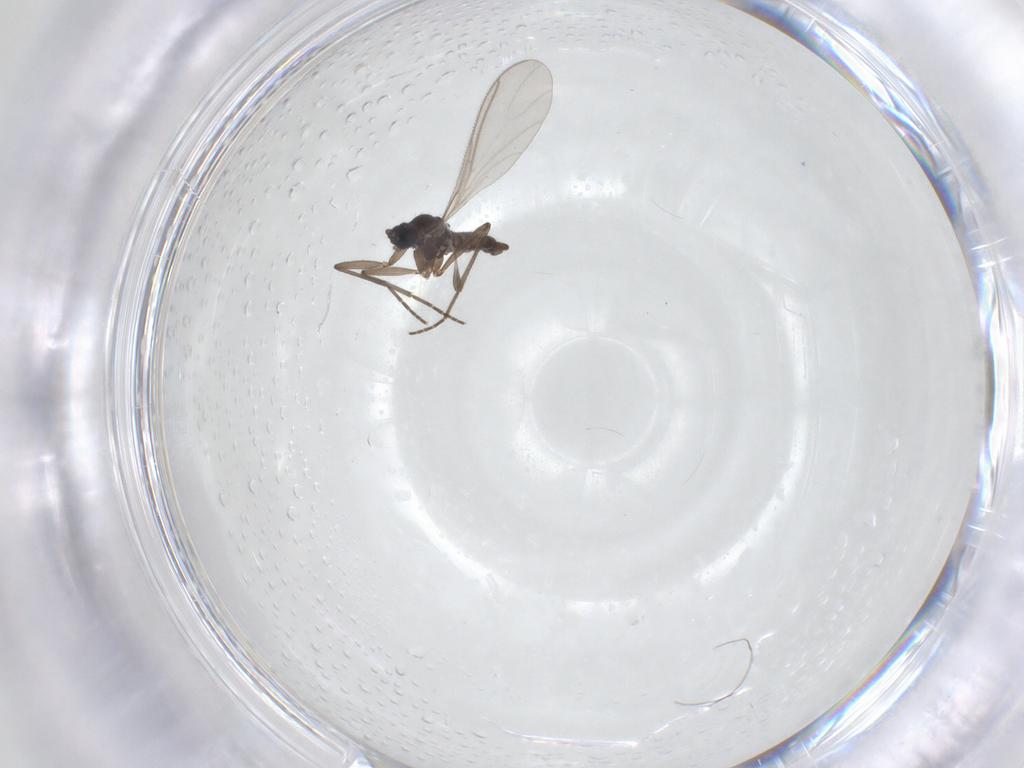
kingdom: Animalia
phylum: Arthropoda
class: Insecta
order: Diptera
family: Sciaridae
